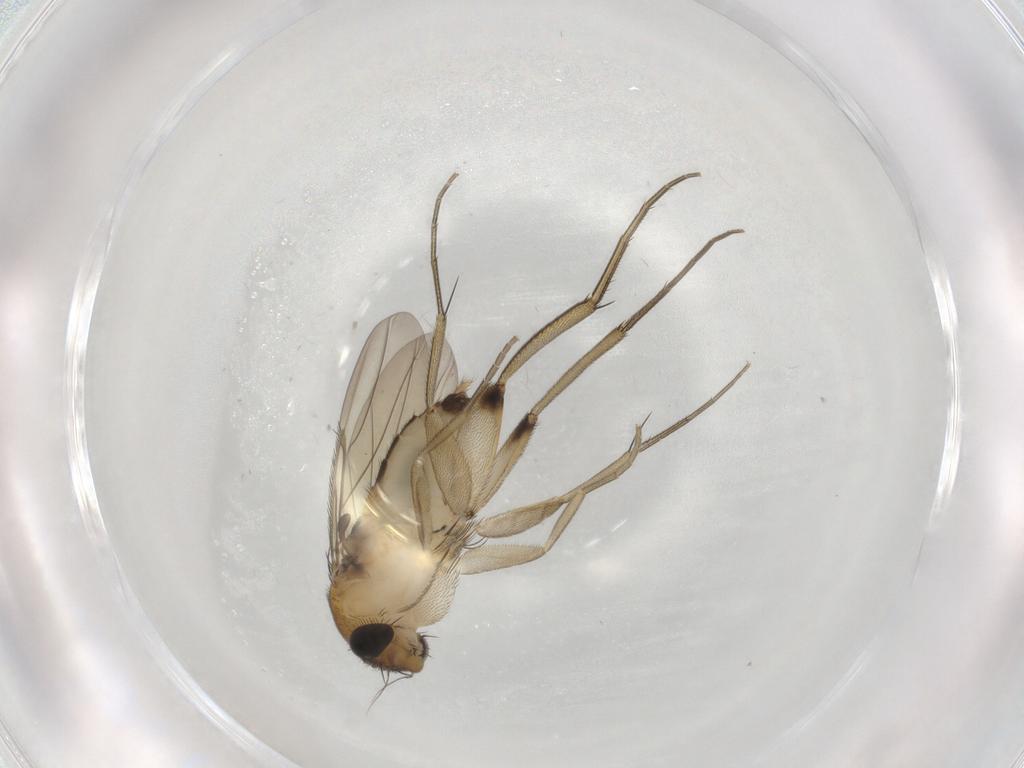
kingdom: Animalia
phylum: Arthropoda
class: Insecta
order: Diptera
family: Phoridae
